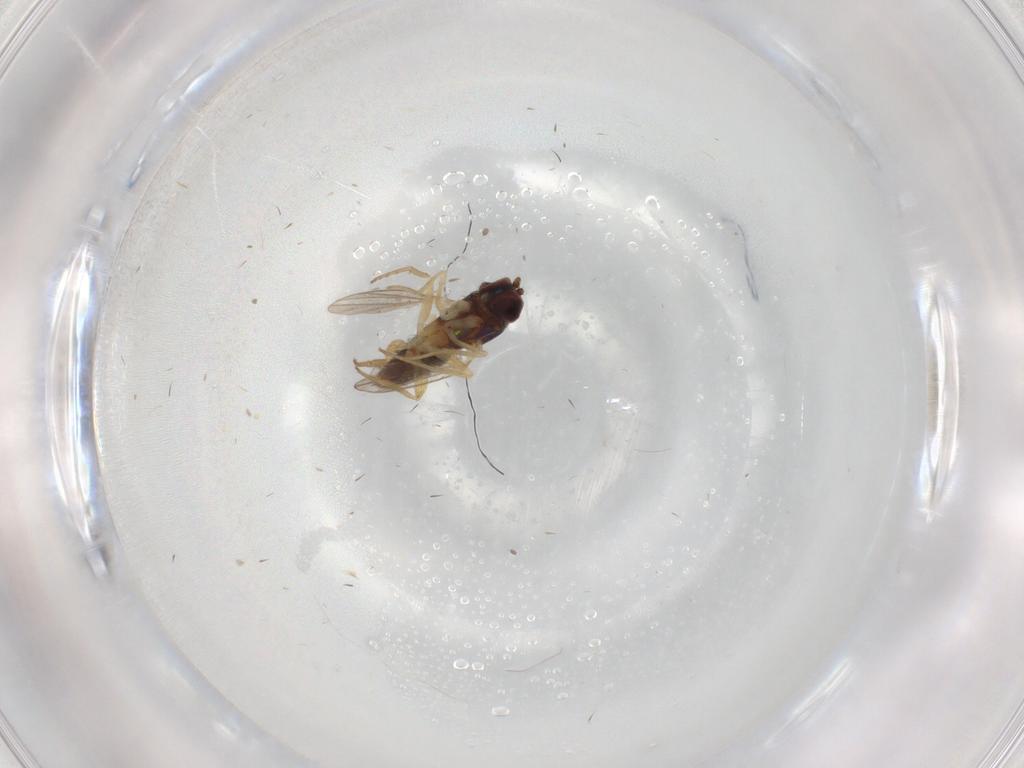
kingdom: Animalia
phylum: Arthropoda
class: Insecta
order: Diptera
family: Dolichopodidae
